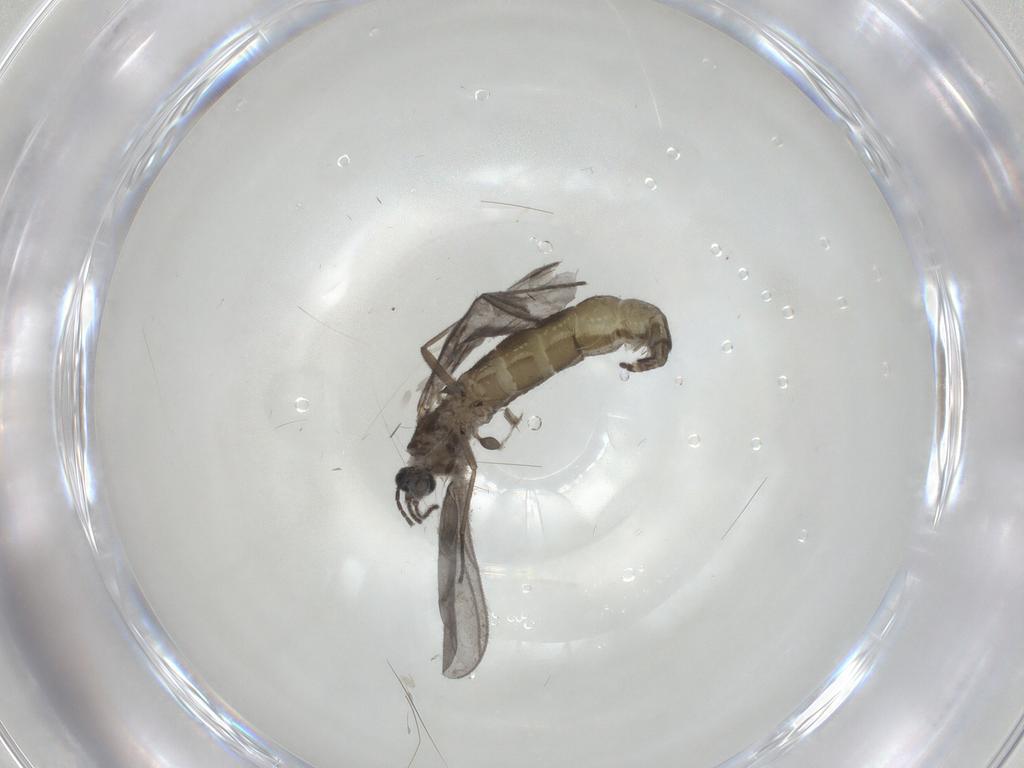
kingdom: Animalia
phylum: Arthropoda
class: Insecta
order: Diptera
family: Sciaridae
